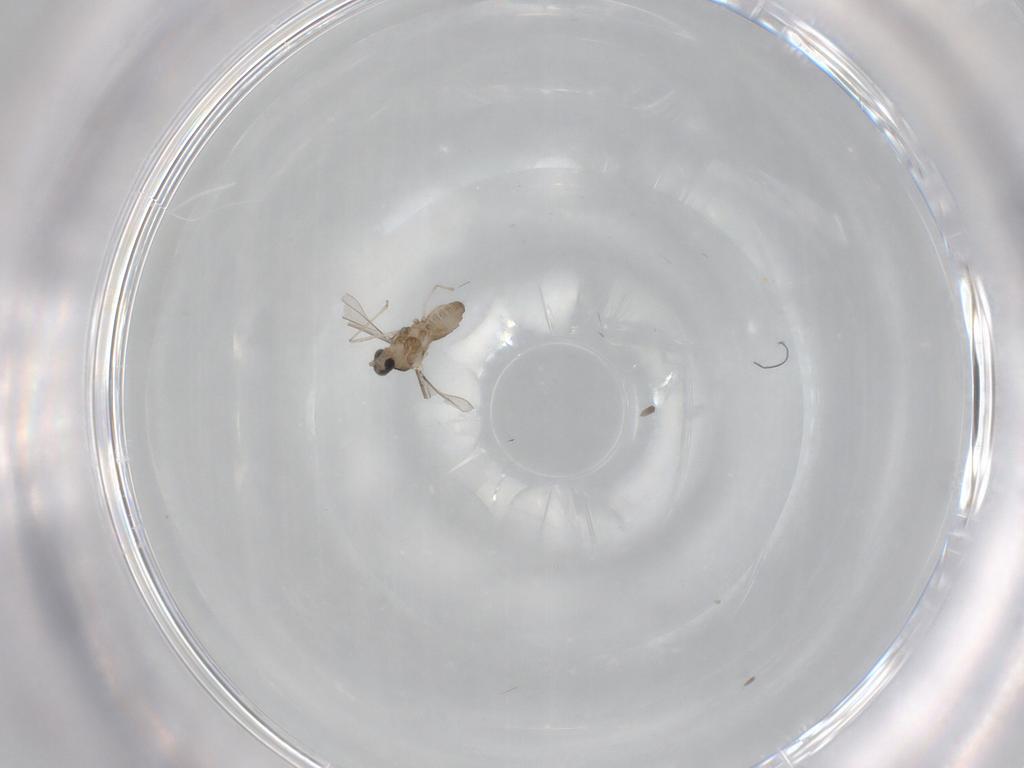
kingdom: Animalia
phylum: Arthropoda
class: Insecta
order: Diptera
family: Cecidomyiidae
